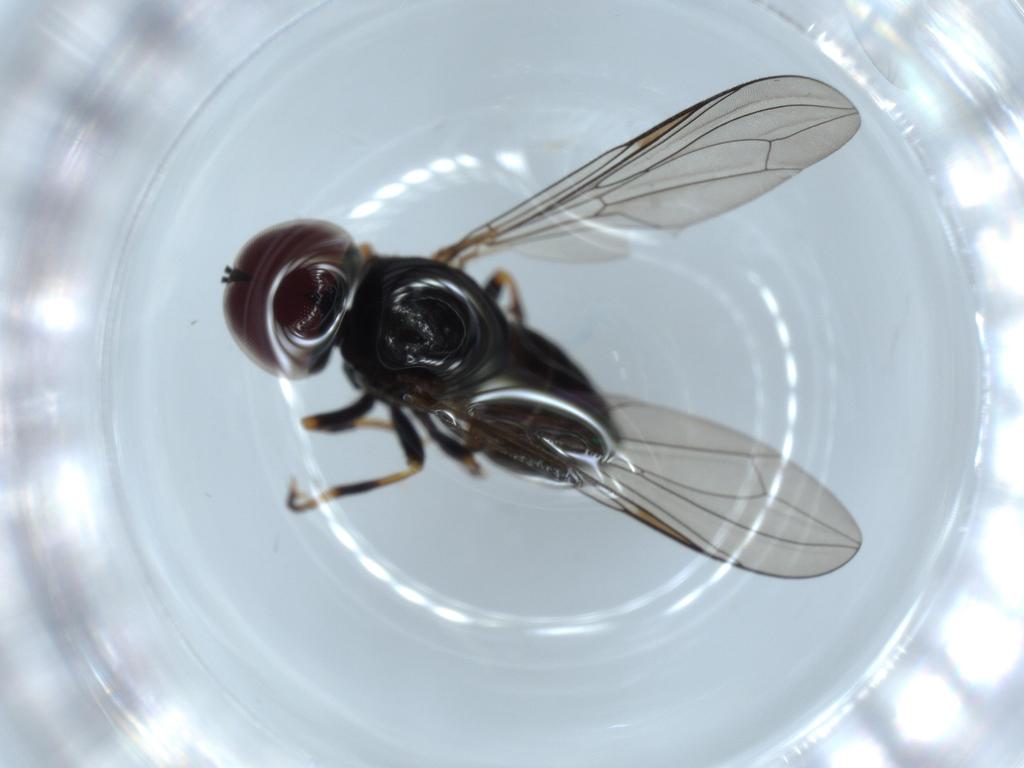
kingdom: Animalia
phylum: Arthropoda
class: Insecta
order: Diptera
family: Pipunculidae
